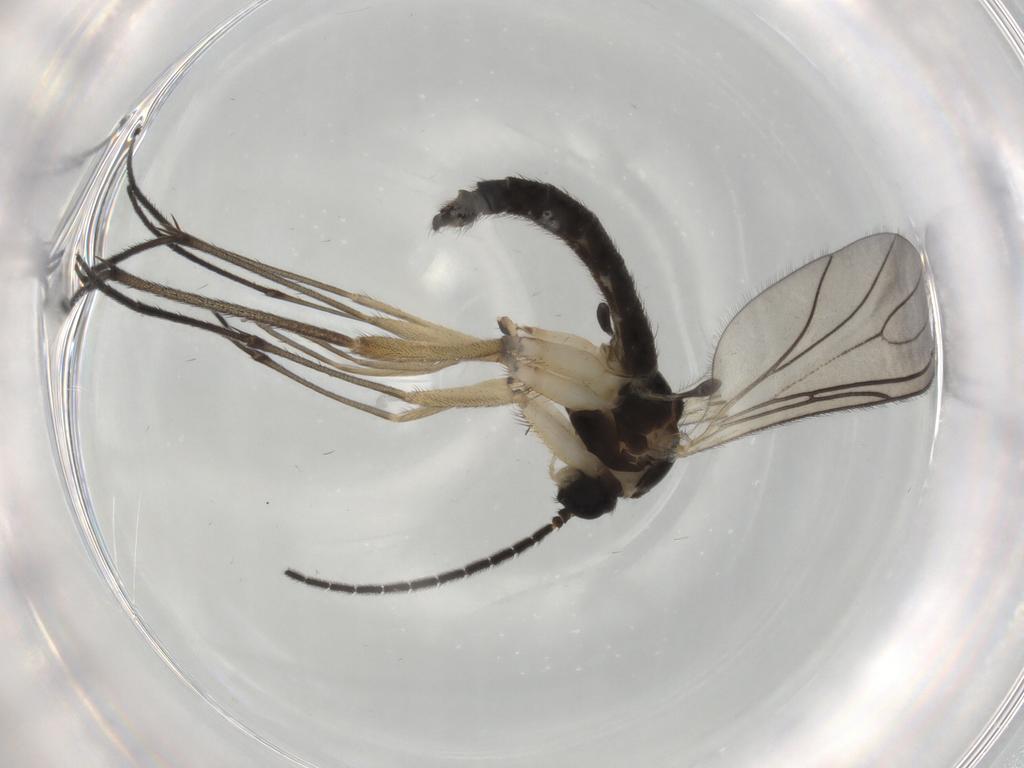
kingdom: Animalia
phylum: Arthropoda
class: Insecta
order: Diptera
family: Sciaridae
